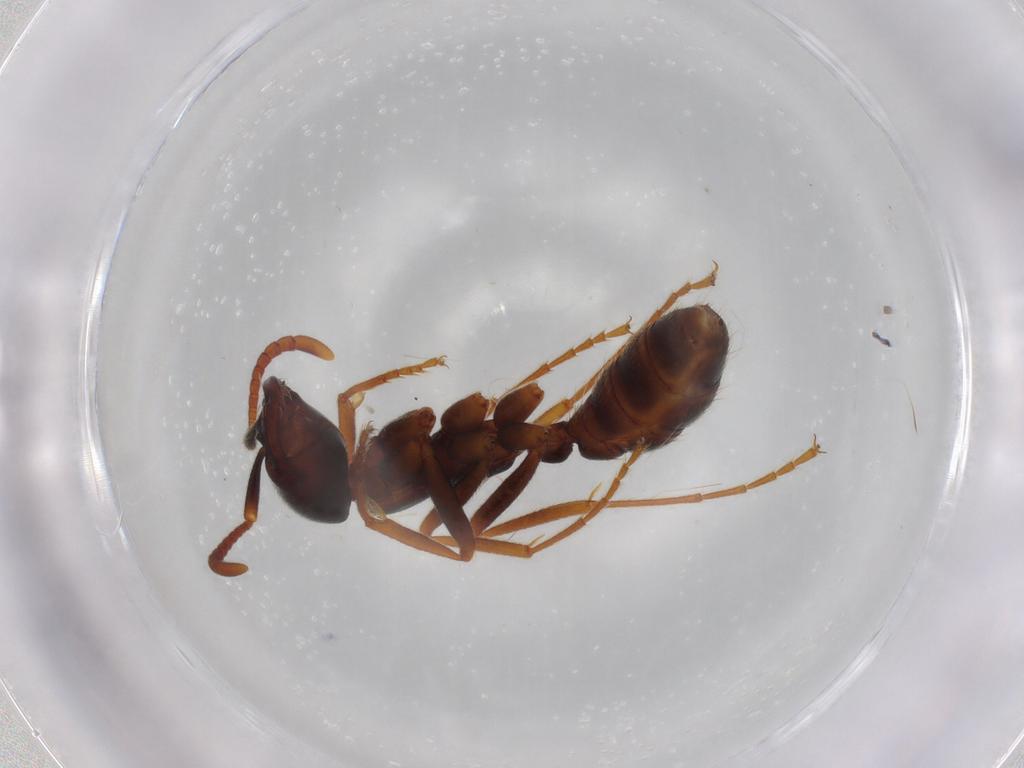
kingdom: Animalia
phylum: Arthropoda
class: Insecta
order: Hymenoptera
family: Formicidae
